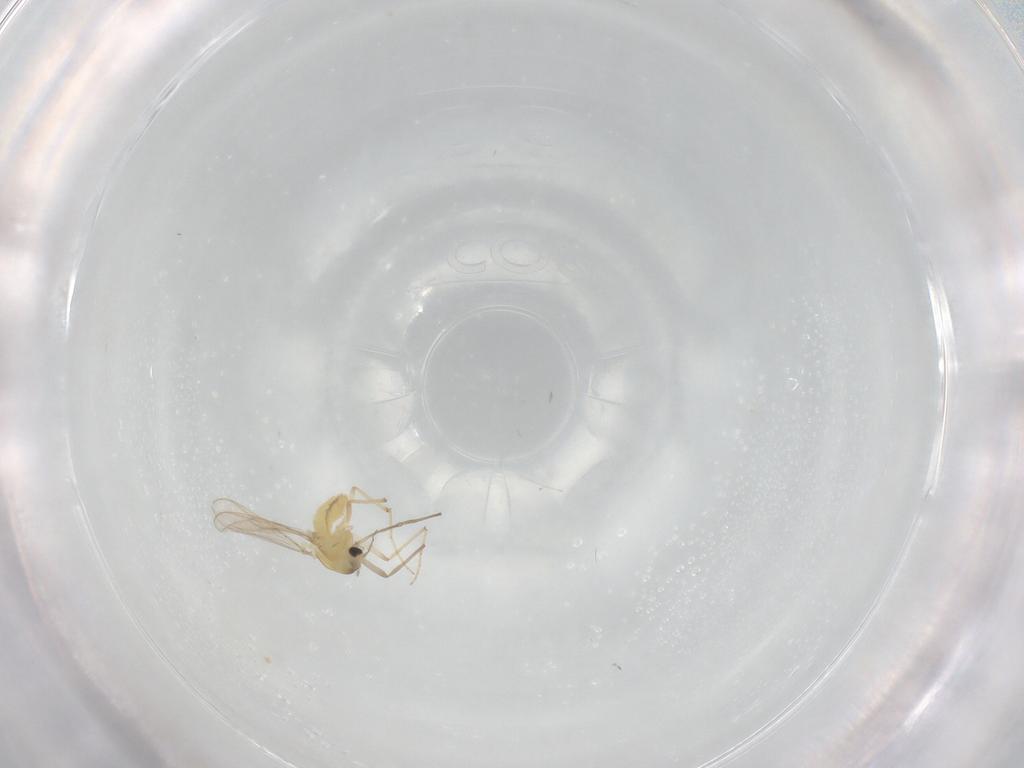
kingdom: Animalia
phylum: Arthropoda
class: Insecta
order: Diptera
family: Chironomidae
